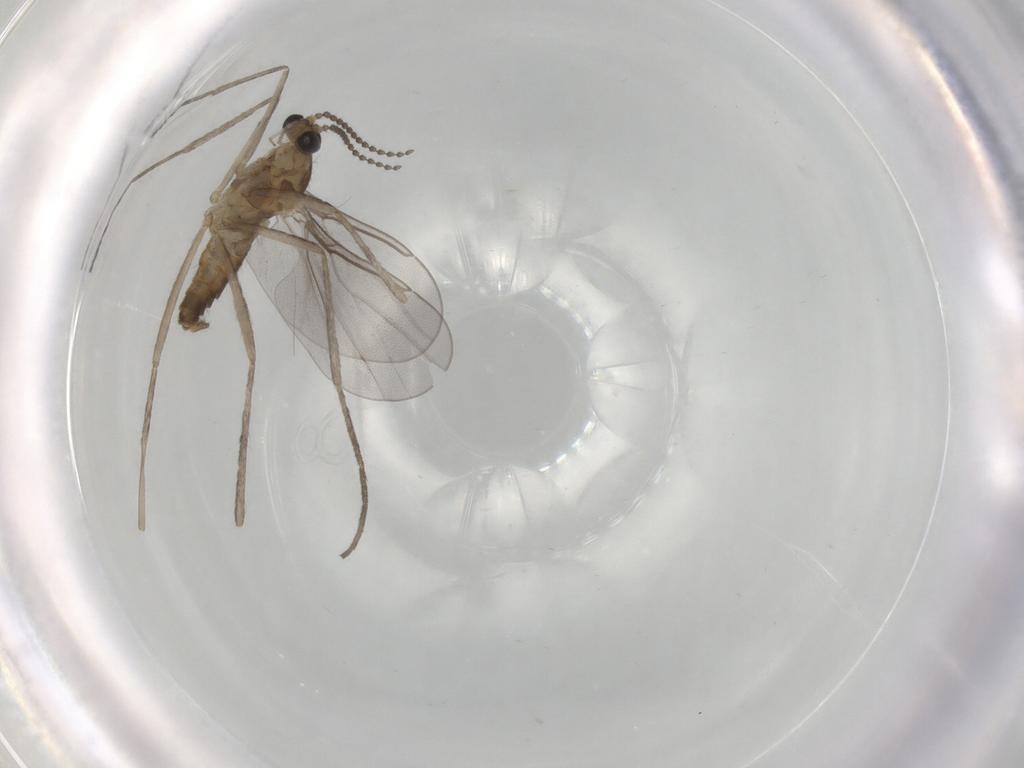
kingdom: Animalia
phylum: Arthropoda
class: Insecta
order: Diptera
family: Cecidomyiidae
